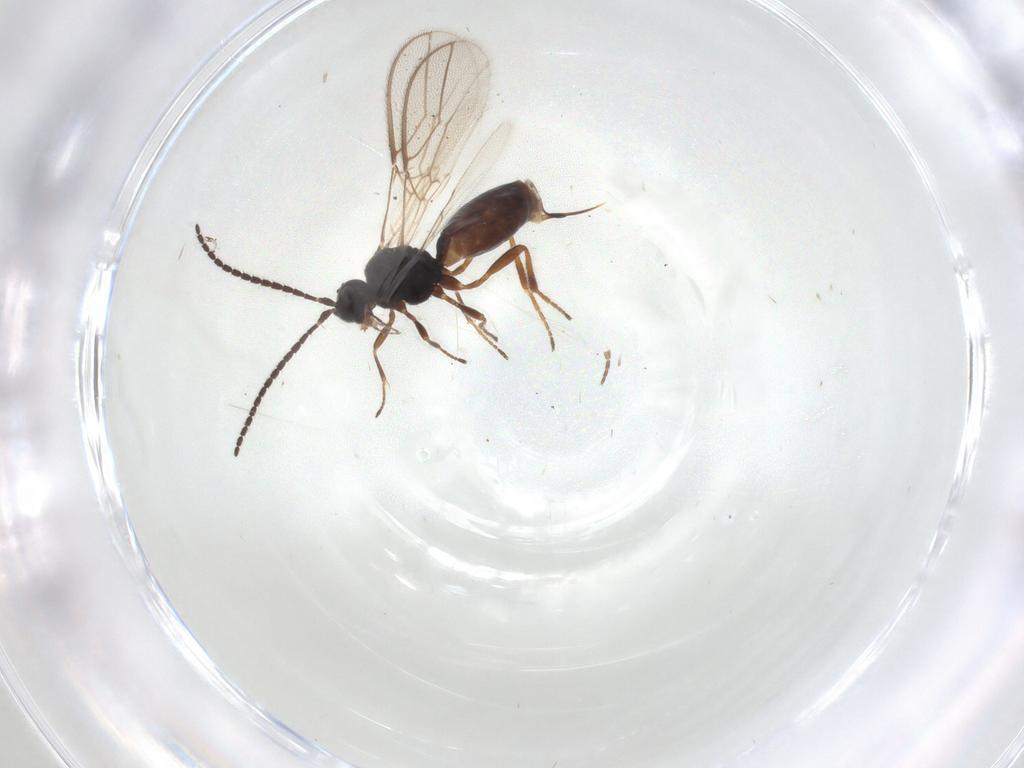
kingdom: Animalia
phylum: Arthropoda
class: Insecta
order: Hymenoptera
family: Braconidae
